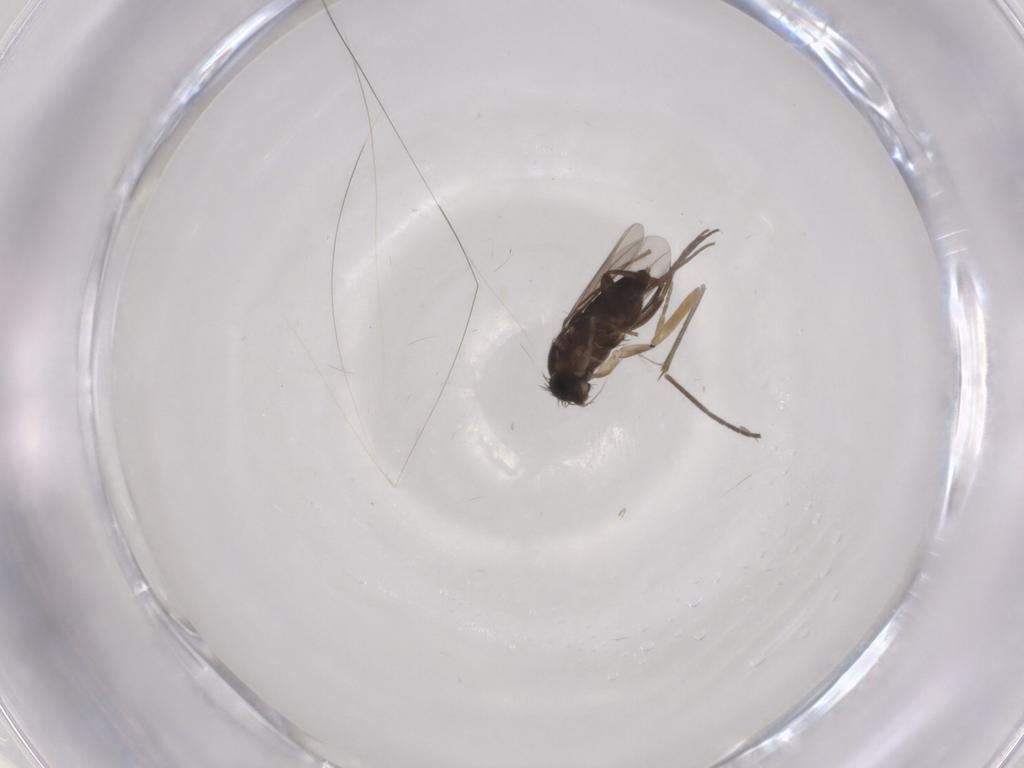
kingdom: Animalia
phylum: Arthropoda
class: Insecta
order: Diptera
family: Phoridae
